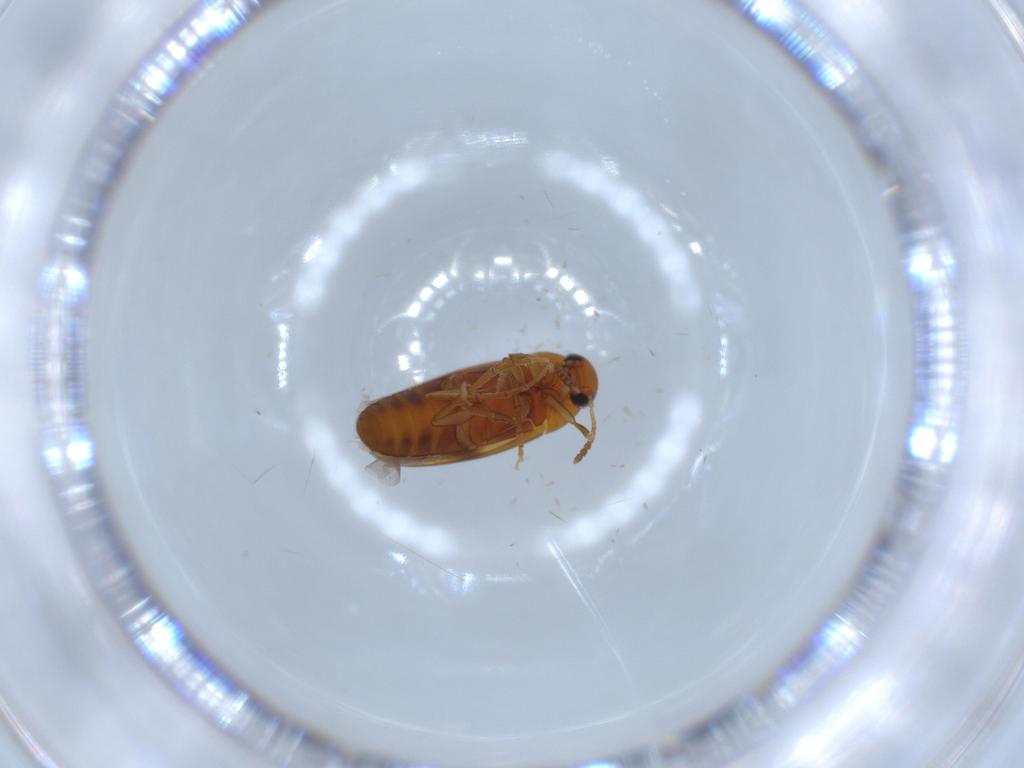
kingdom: Animalia
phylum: Arthropoda
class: Insecta
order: Coleoptera
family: Scraptiidae
